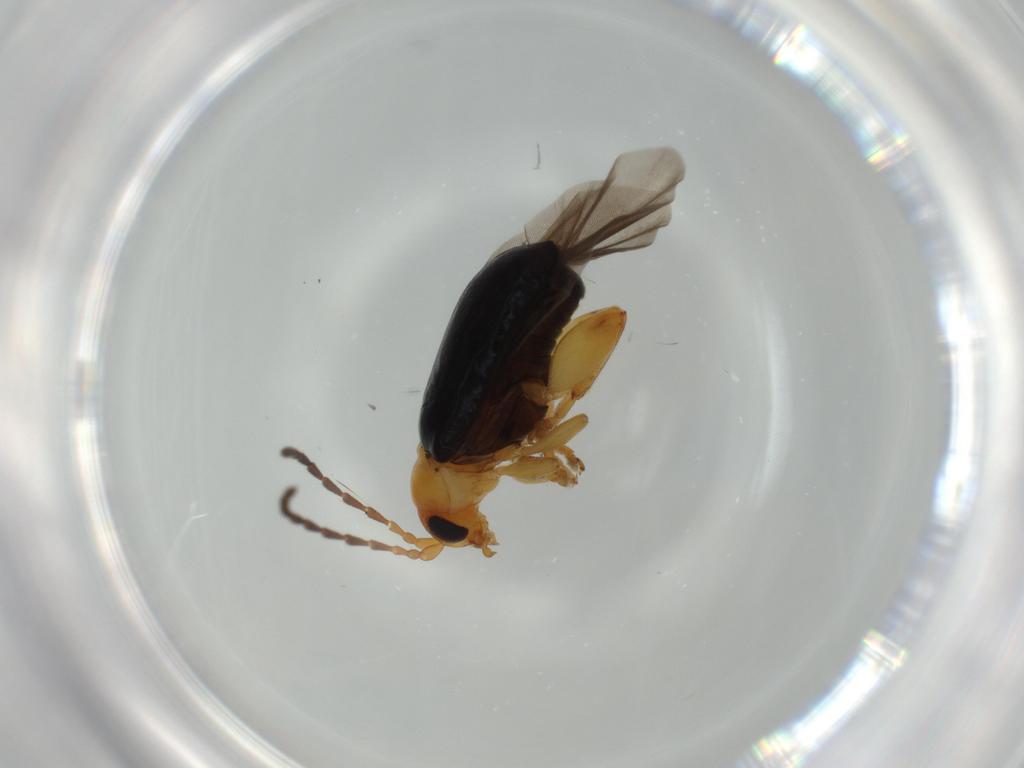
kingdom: Animalia
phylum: Arthropoda
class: Insecta
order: Coleoptera
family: Chrysomelidae
